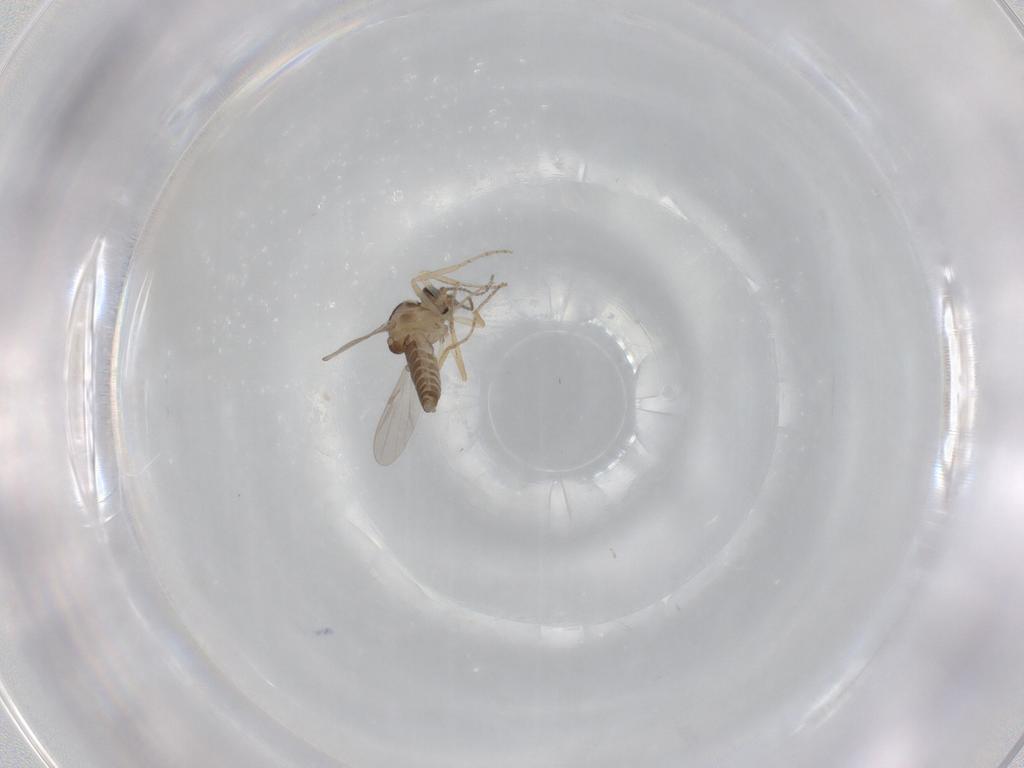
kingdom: Animalia
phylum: Arthropoda
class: Insecta
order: Diptera
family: Ceratopogonidae
